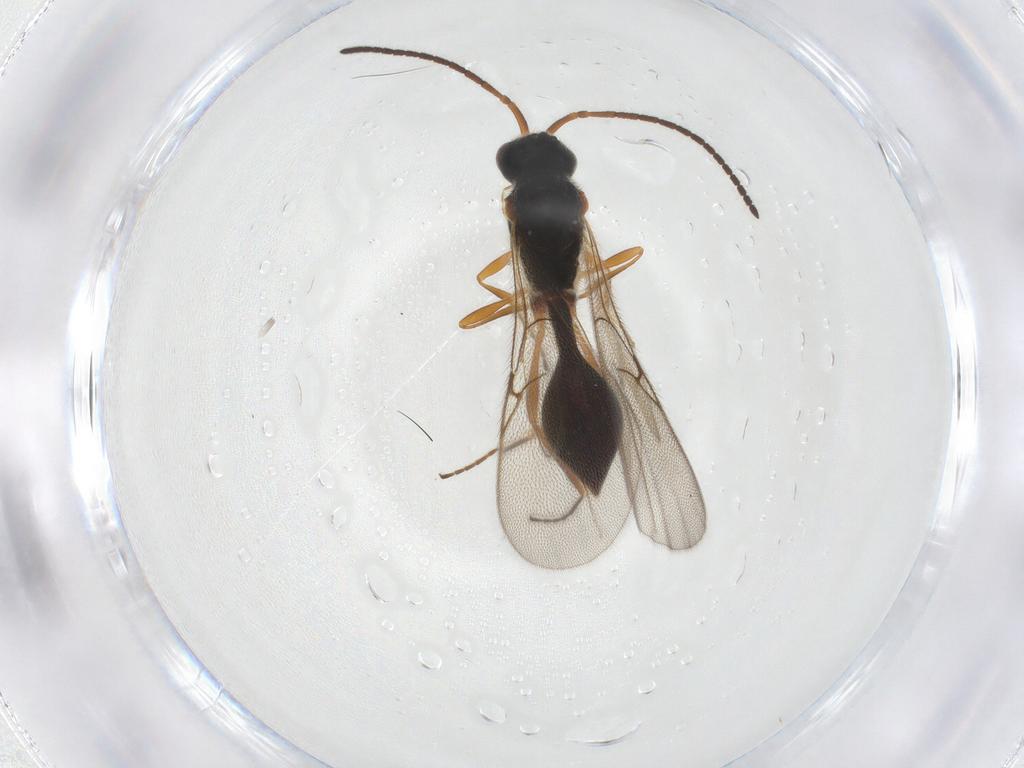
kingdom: Animalia
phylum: Arthropoda
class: Insecta
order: Hymenoptera
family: Diapriidae
